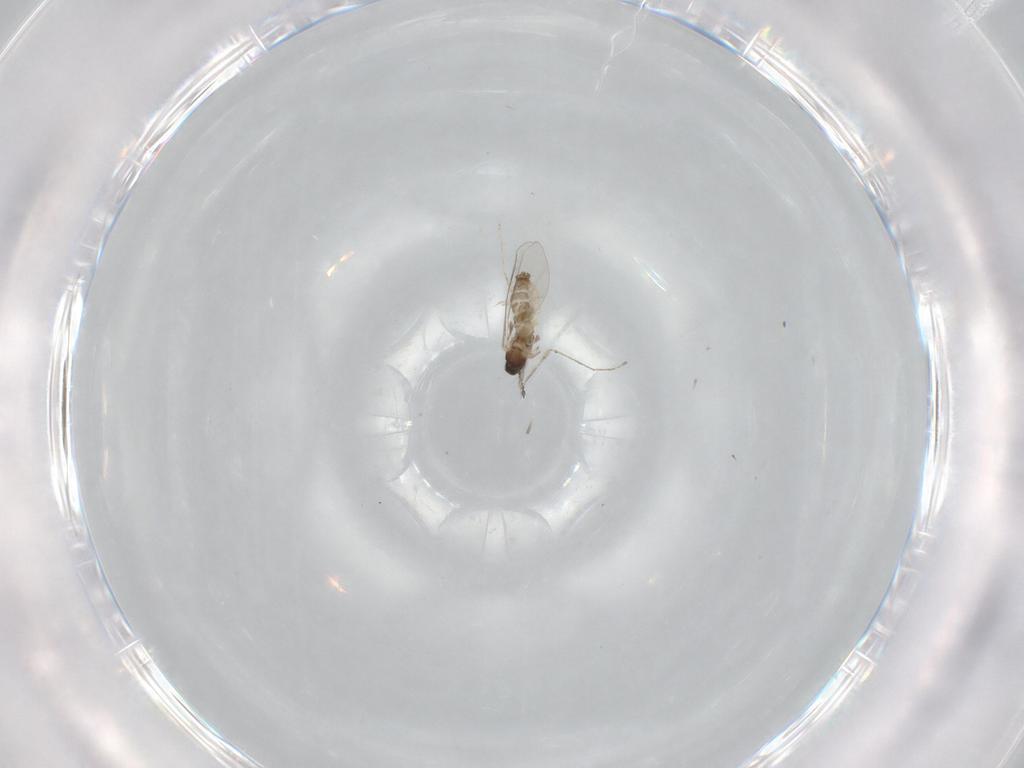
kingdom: Animalia
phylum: Arthropoda
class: Insecta
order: Diptera
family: Cecidomyiidae
